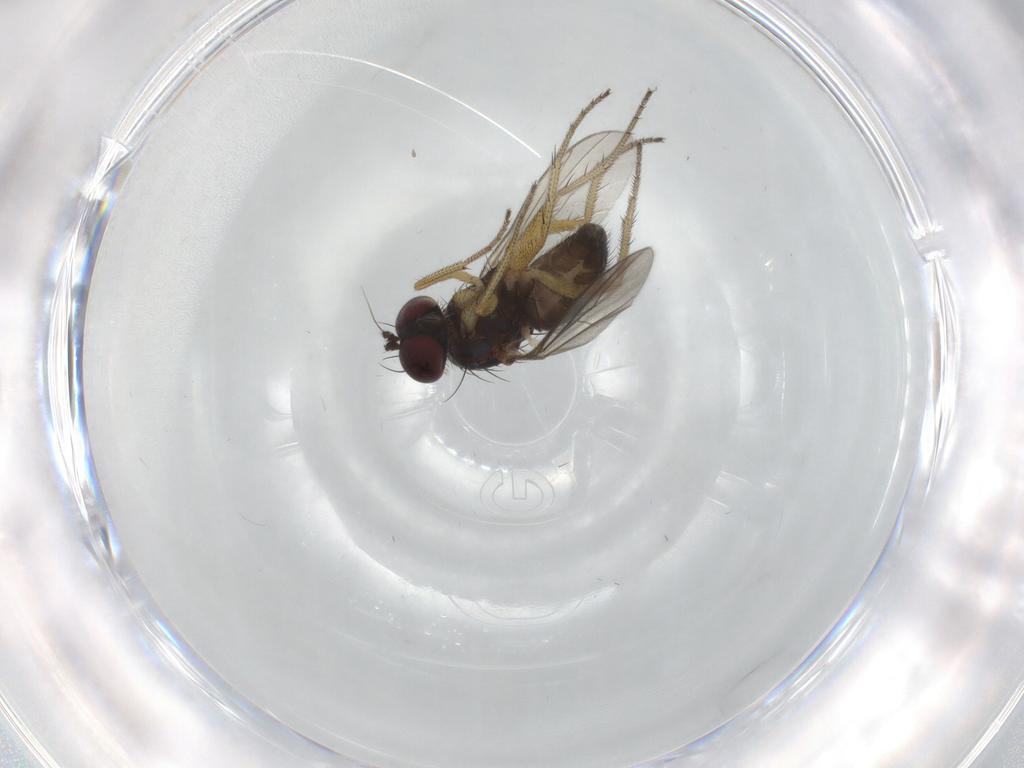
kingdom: Animalia
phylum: Arthropoda
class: Insecta
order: Diptera
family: Dolichopodidae
